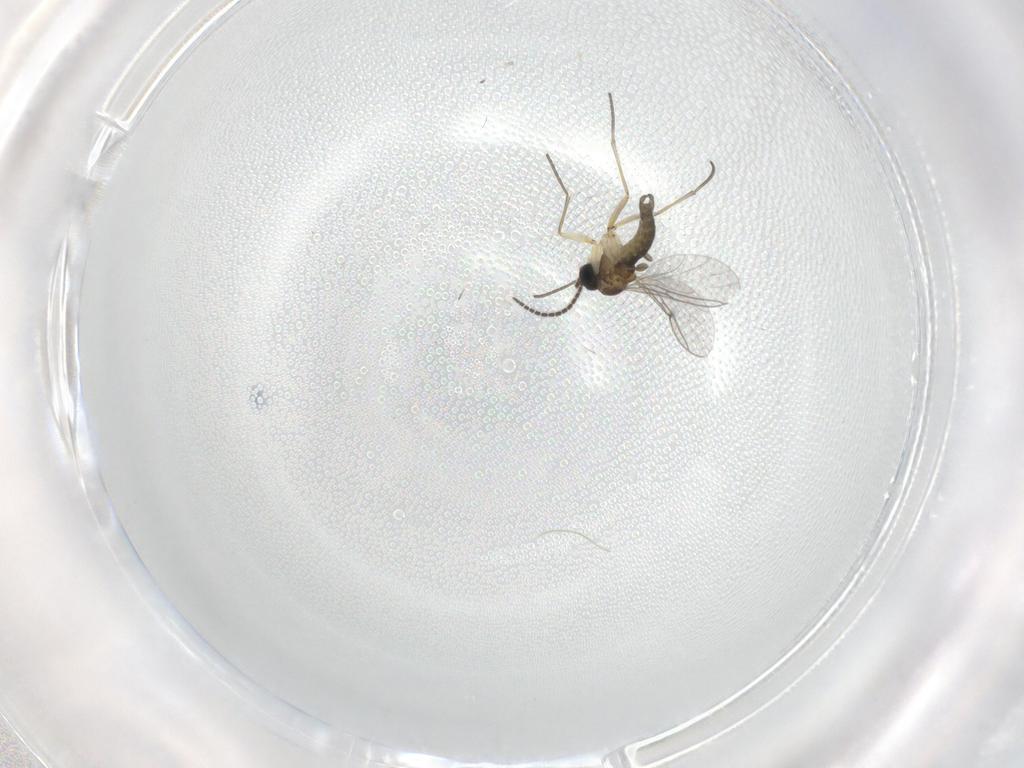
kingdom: Animalia
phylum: Arthropoda
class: Insecta
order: Diptera
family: Sciaridae
